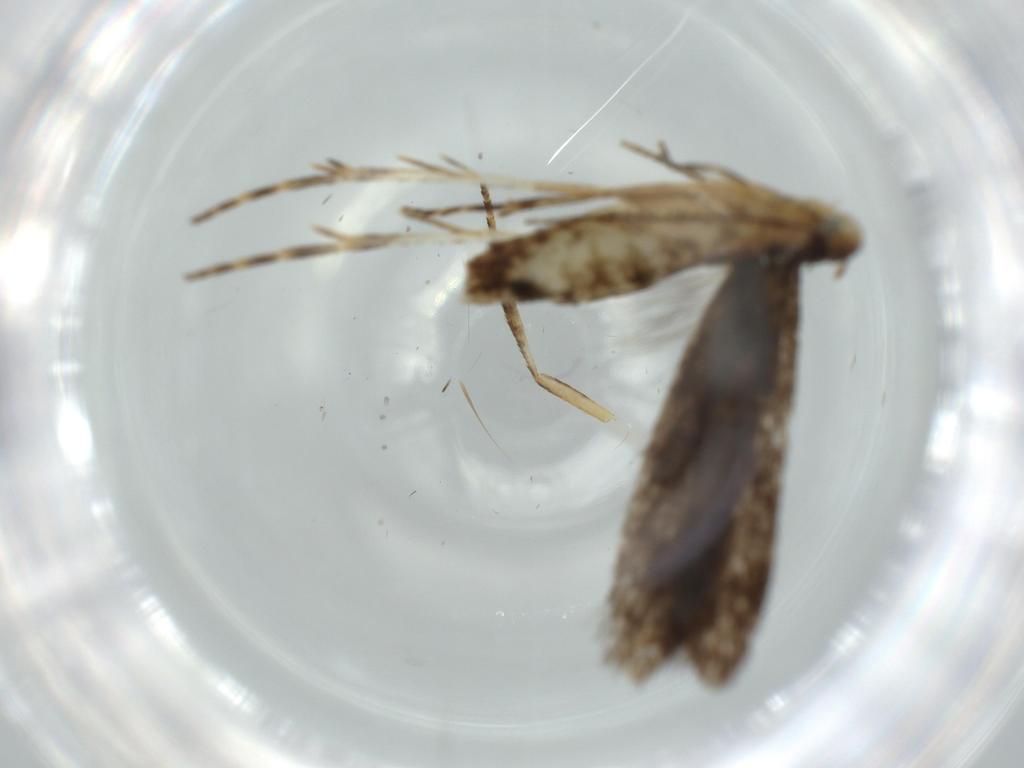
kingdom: Animalia
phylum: Arthropoda
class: Insecta
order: Lepidoptera
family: Gelechiidae
